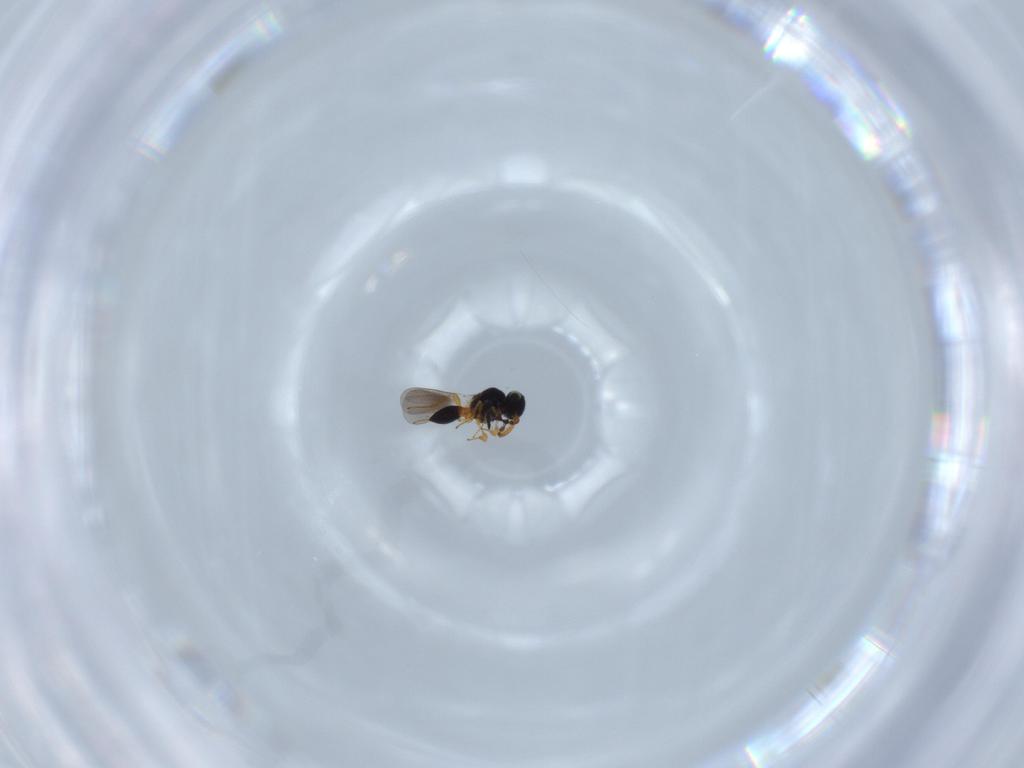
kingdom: Animalia
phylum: Arthropoda
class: Insecta
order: Hymenoptera
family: Platygastridae
